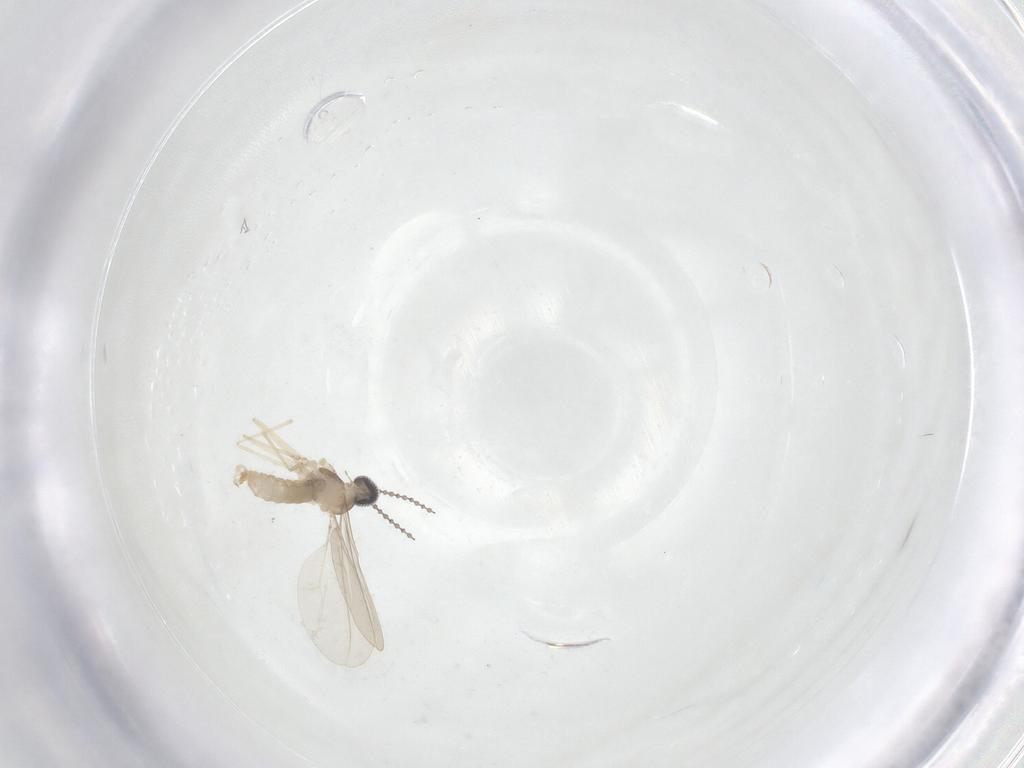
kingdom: Animalia
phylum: Arthropoda
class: Insecta
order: Diptera
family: Cecidomyiidae
